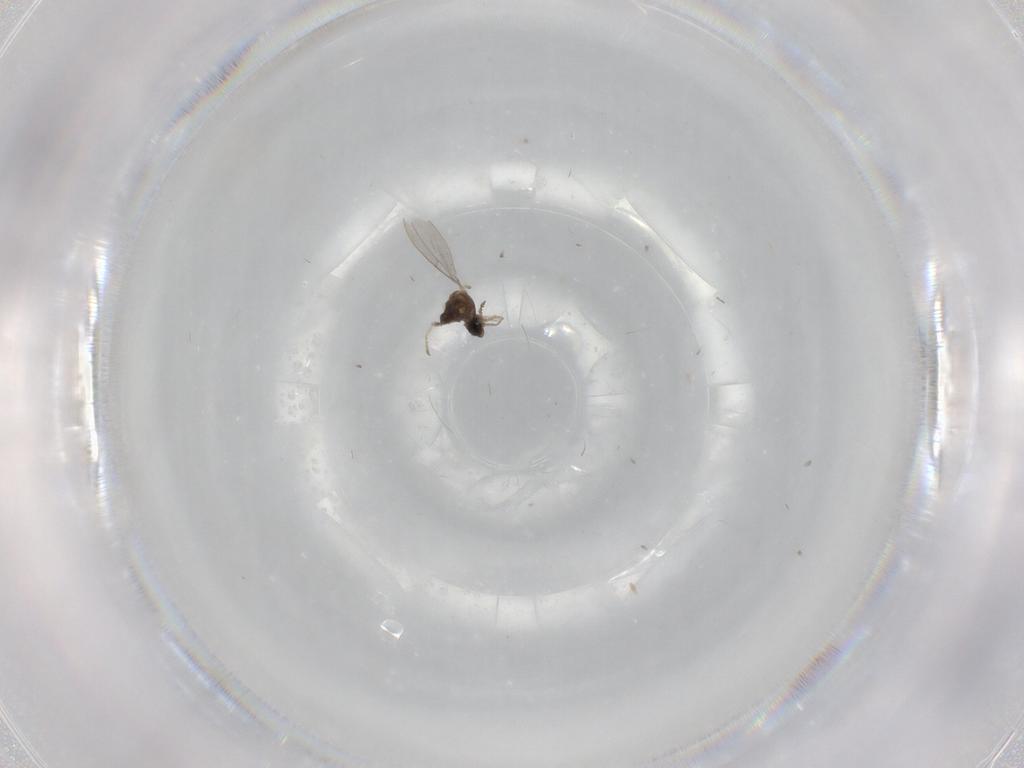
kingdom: Animalia
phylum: Arthropoda
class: Insecta
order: Diptera
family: Cecidomyiidae
